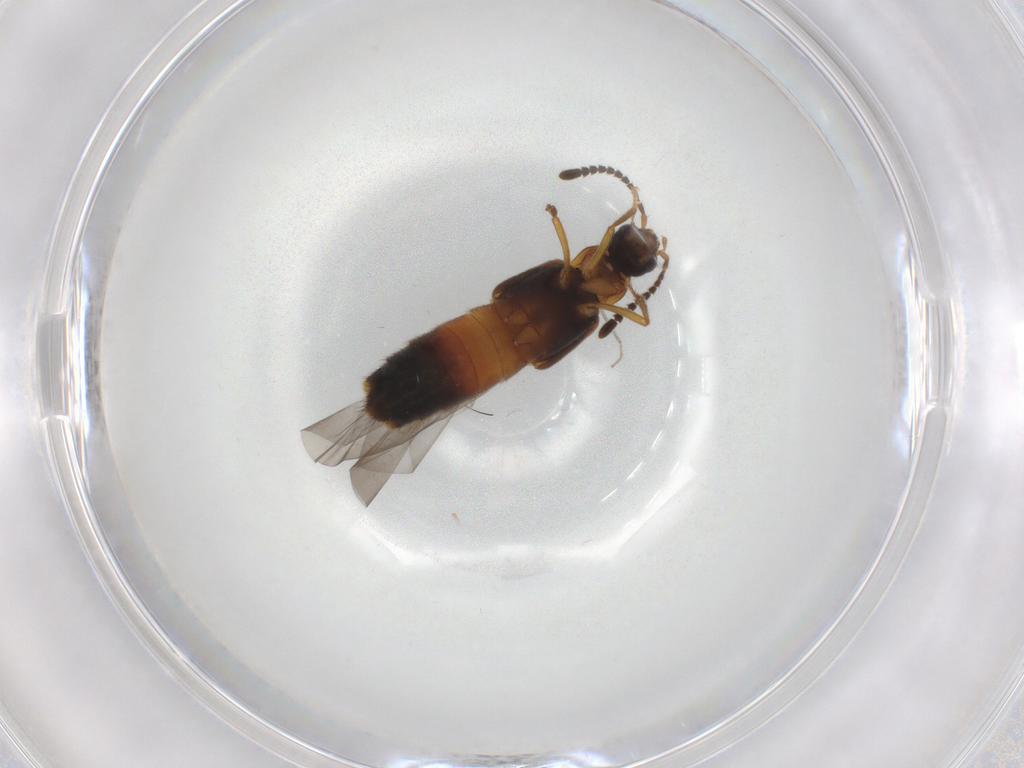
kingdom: Animalia
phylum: Arthropoda
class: Insecta
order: Coleoptera
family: Staphylinidae
